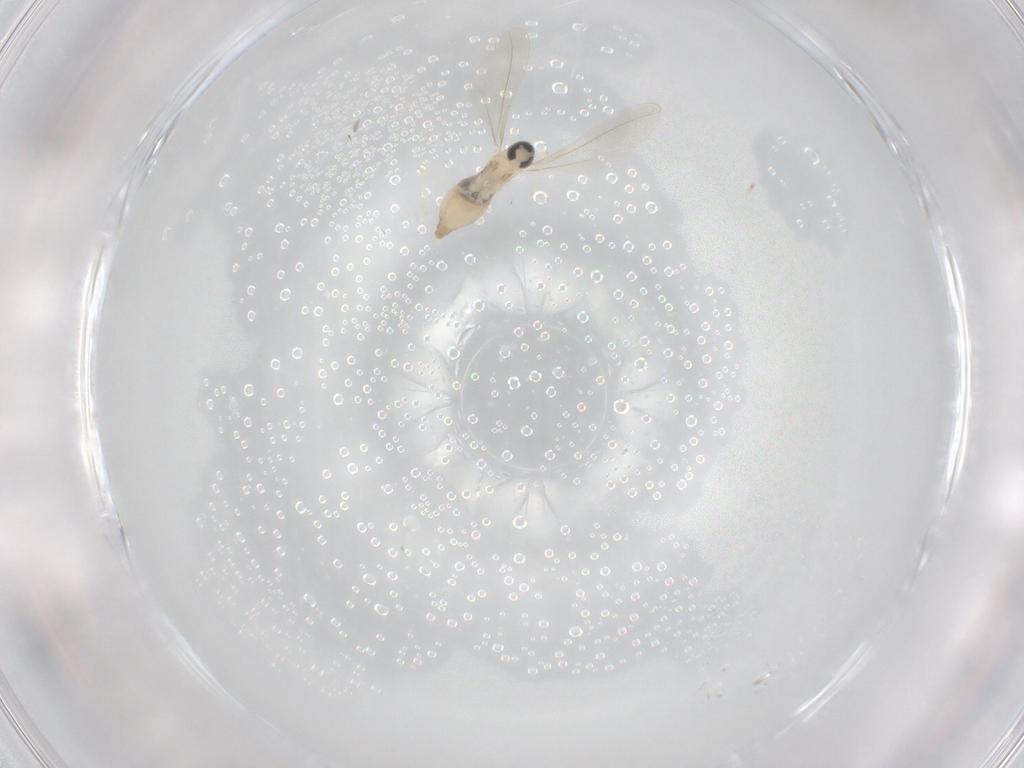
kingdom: Animalia
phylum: Arthropoda
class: Insecta
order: Diptera
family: Cecidomyiidae
